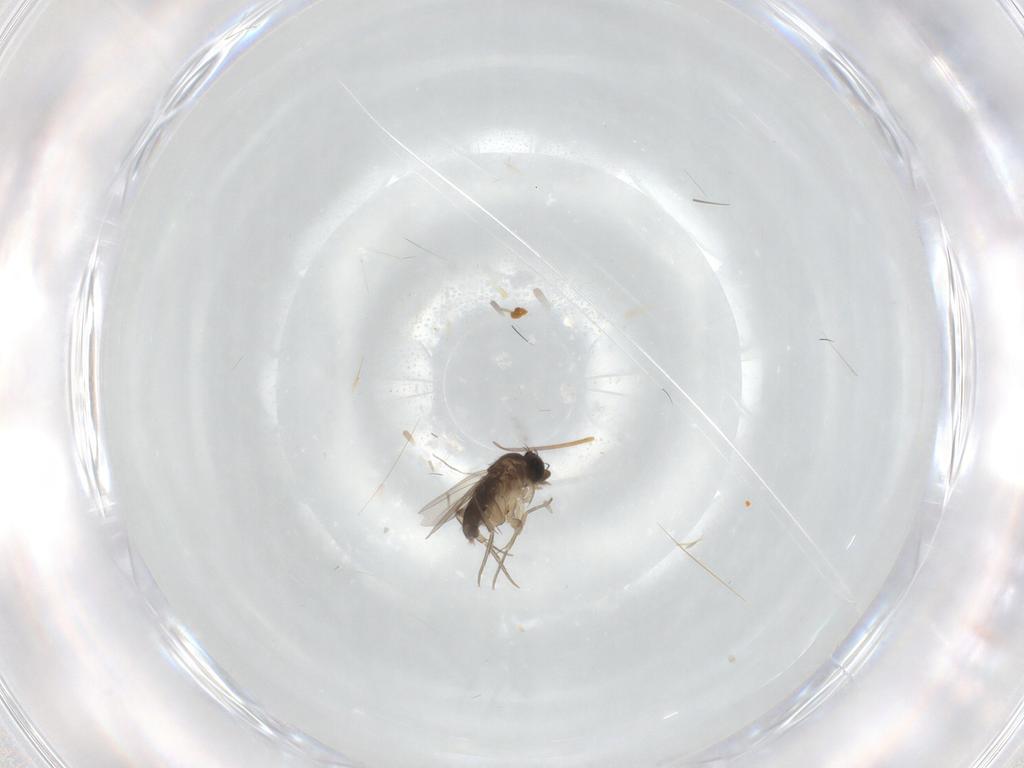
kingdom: Animalia
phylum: Arthropoda
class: Insecta
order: Diptera
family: Phoridae
